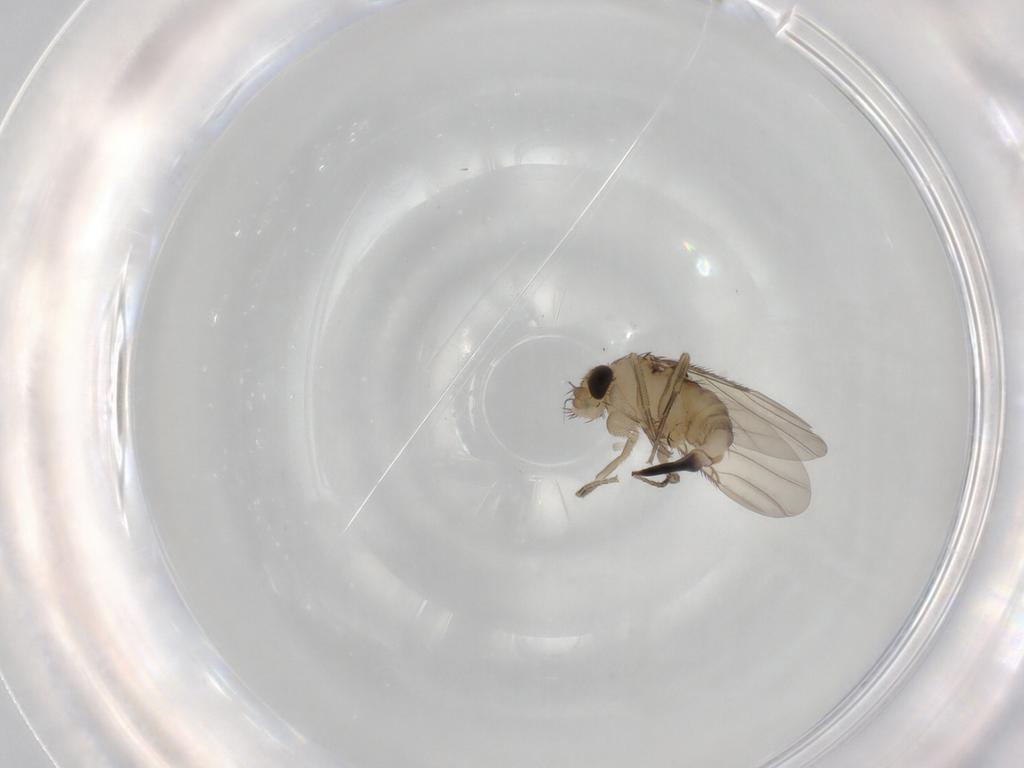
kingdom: Animalia
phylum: Arthropoda
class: Insecta
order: Diptera
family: Phoridae
